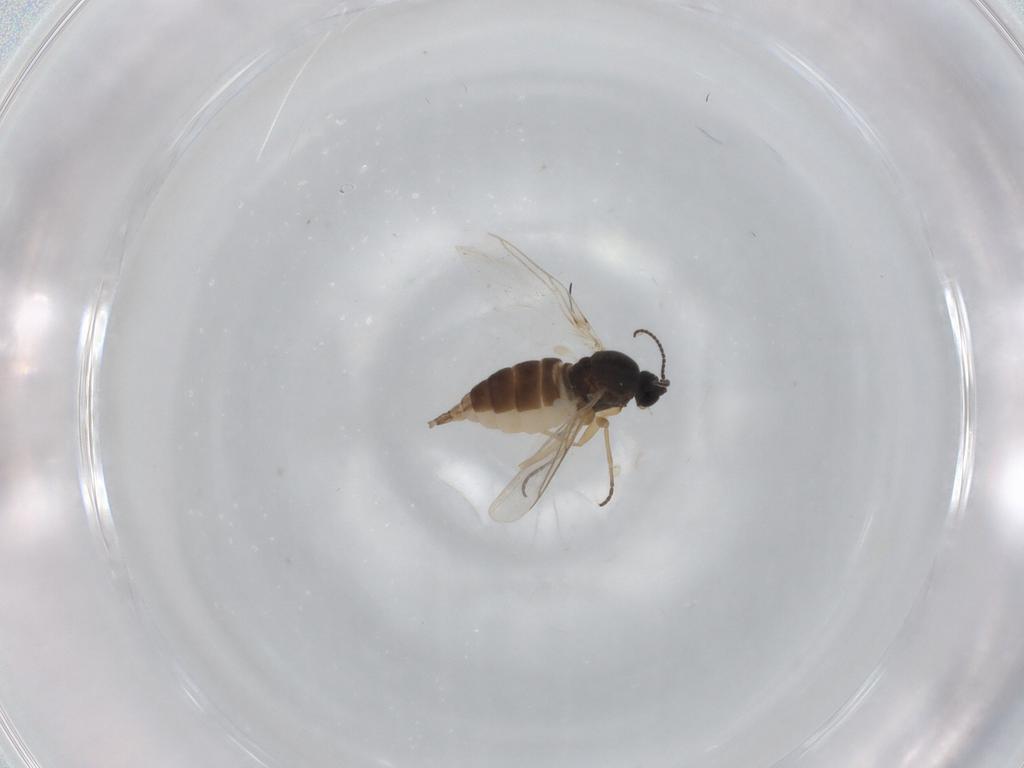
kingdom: Animalia
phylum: Arthropoda
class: Insecta
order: Diptera
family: Sciaridae
